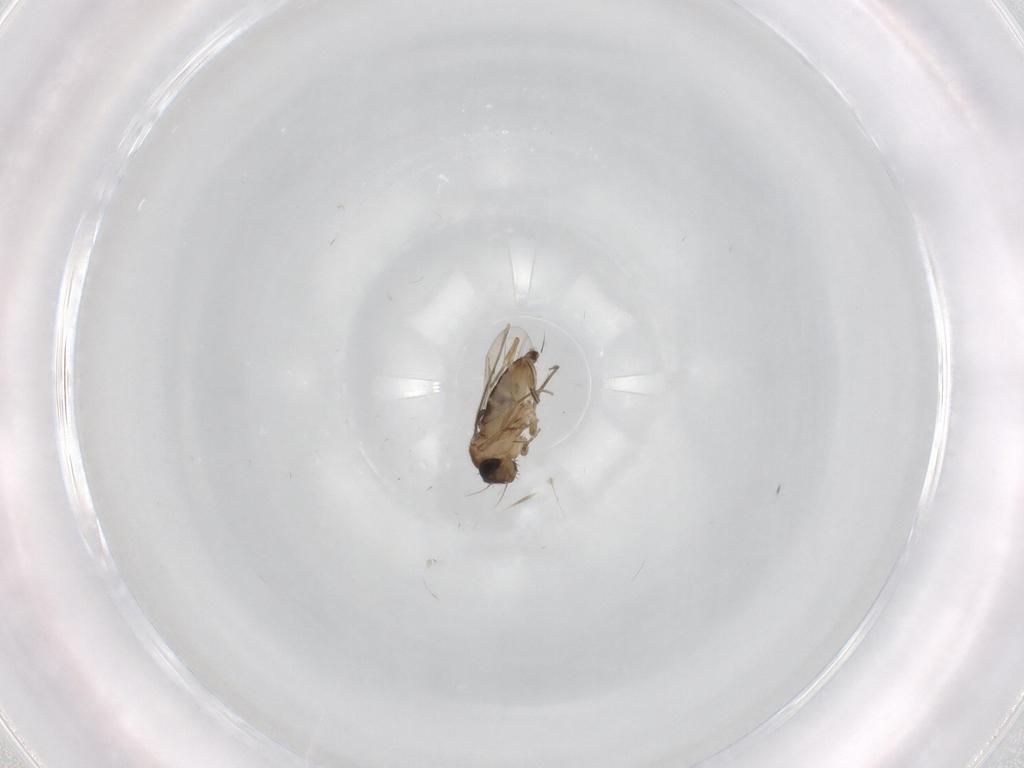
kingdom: Animalia
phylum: Arthropoda
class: Insecta
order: Diptera
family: Phoridae
